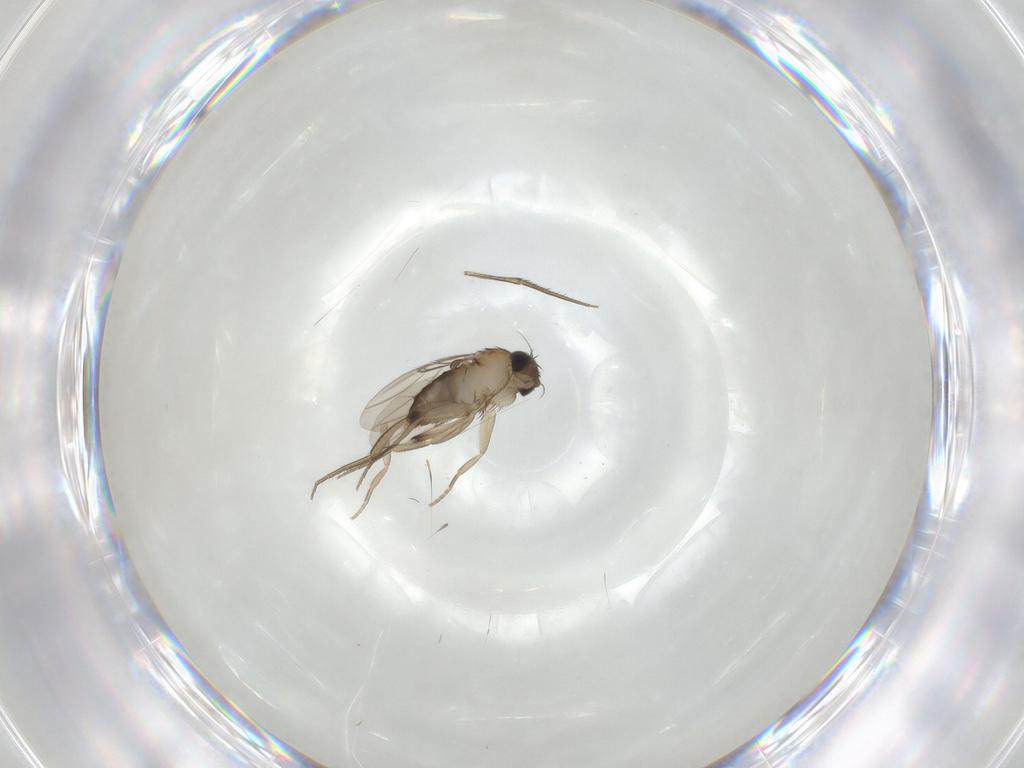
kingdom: Animalia
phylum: Arthropoda
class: Insecta
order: Diptera
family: Phoridae
